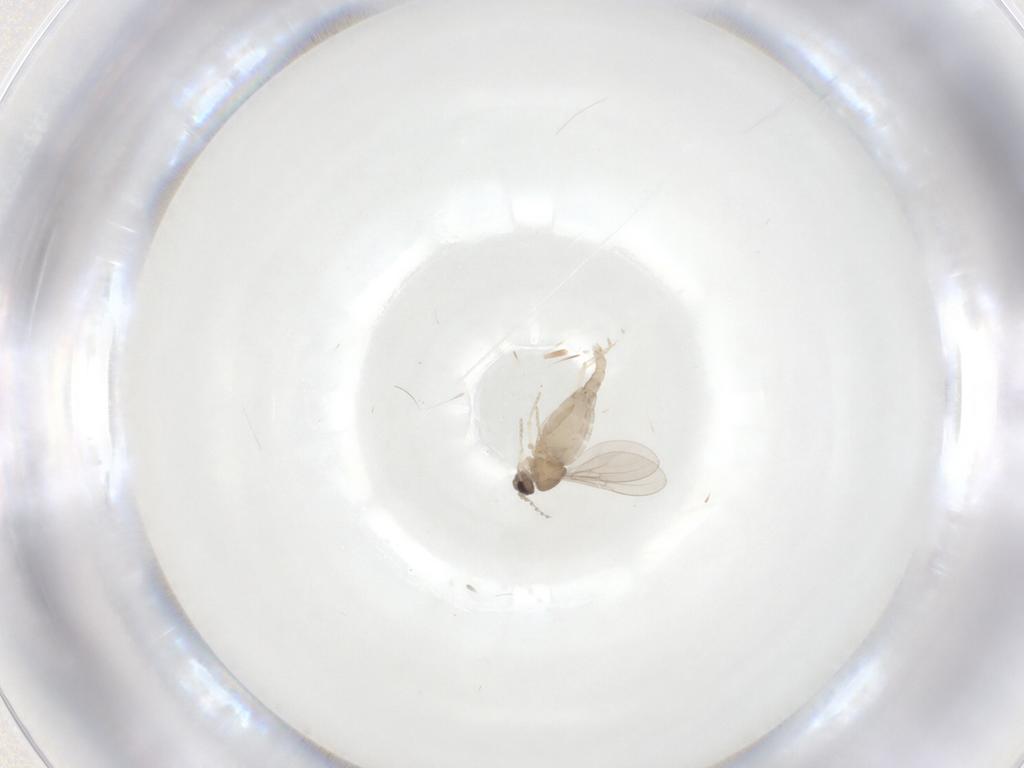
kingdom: Animalia
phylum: Arthropoda
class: Insecta
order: Diptera
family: Cecidomyiidae
